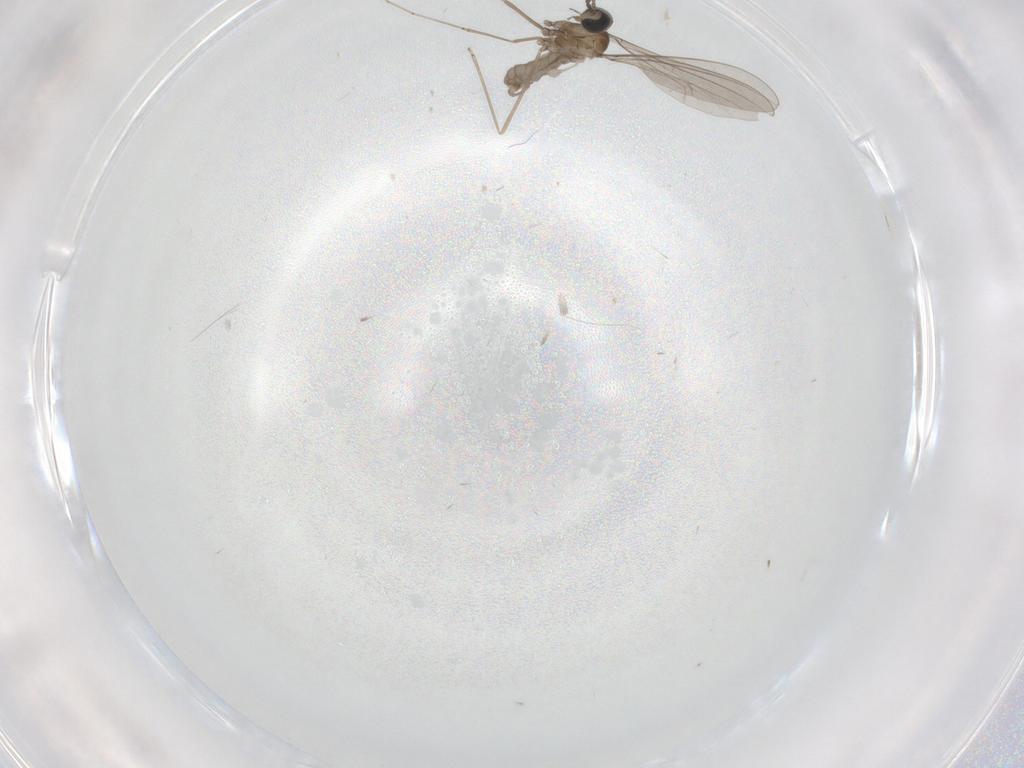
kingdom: Animalia
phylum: Arthropoda
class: Insecta
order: Diptera
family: Cecidomyiidae
